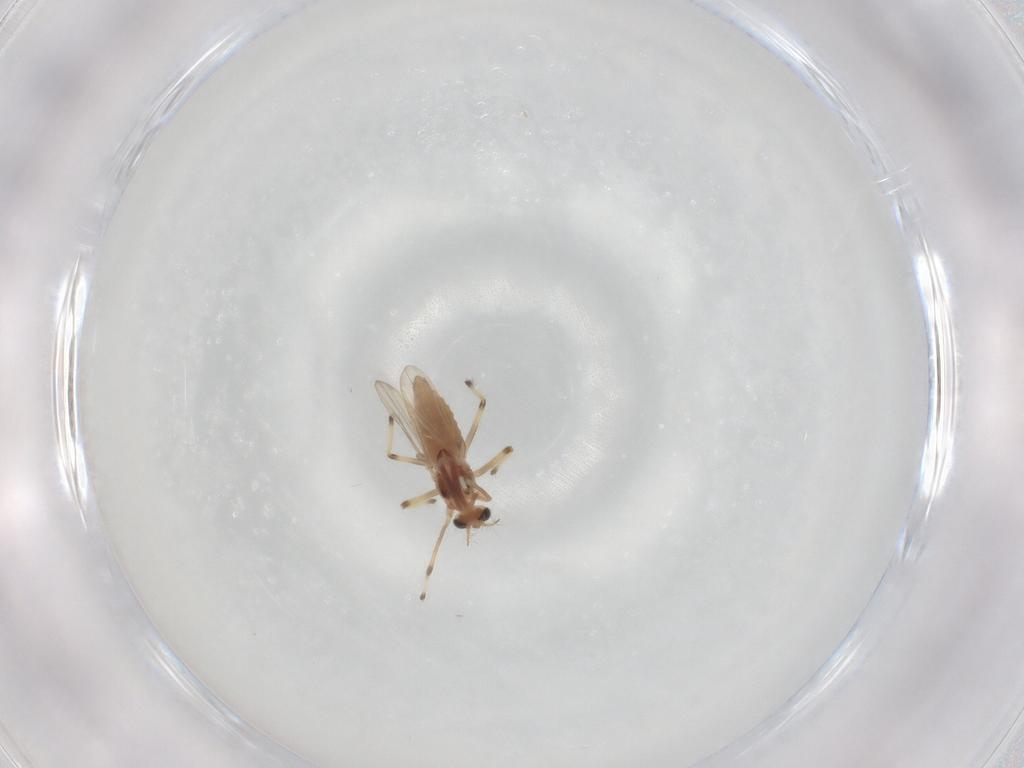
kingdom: Animalia
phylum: Arthropoda
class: Insecta
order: Diptera
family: Chironomidae
